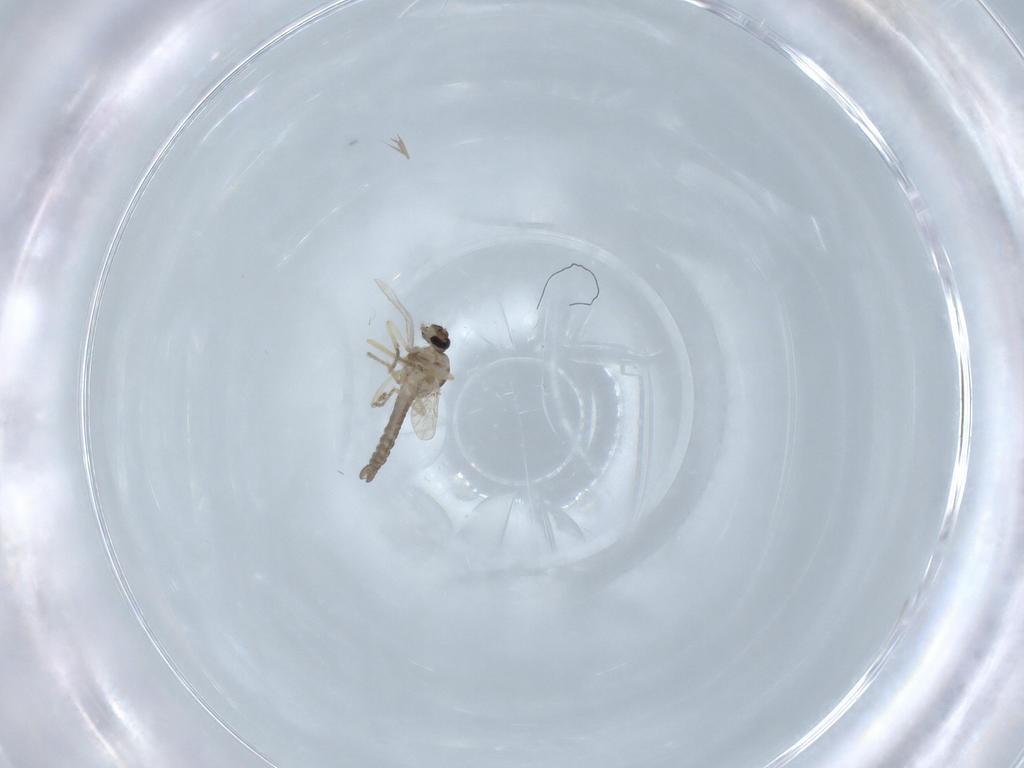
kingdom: Animalia
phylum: Arthropoda
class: Insecta
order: Diptera
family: Ceratopogonidae
